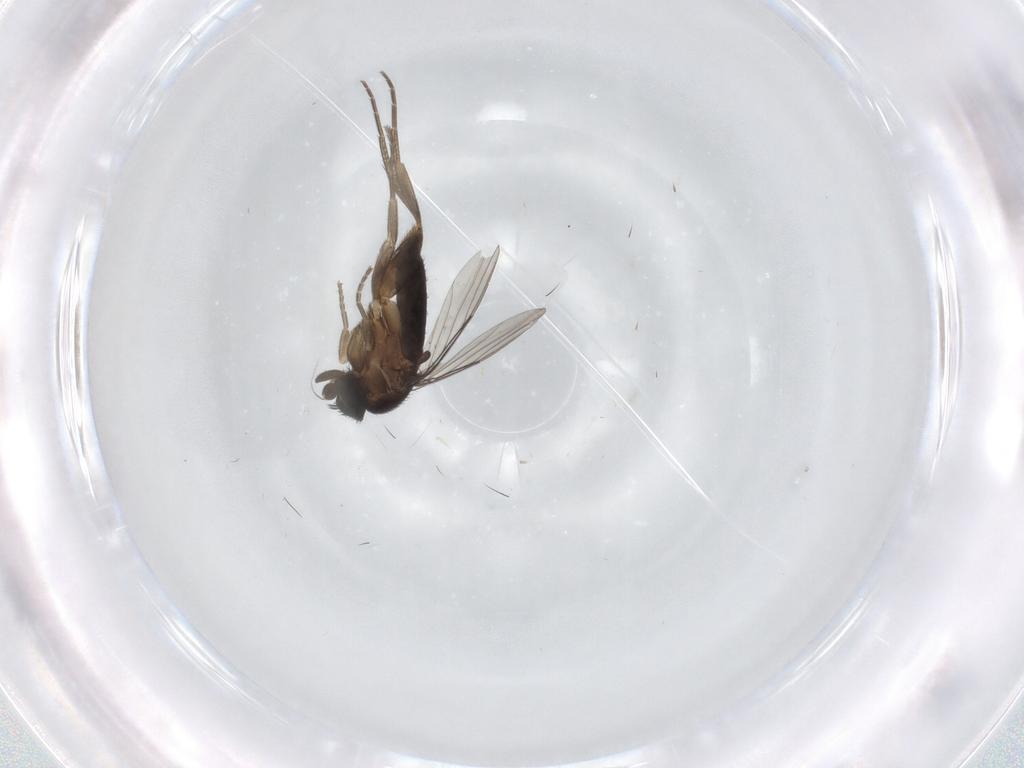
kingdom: Animalia
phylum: Arthropoda
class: Insecta
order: Diptera
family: Phoridae
